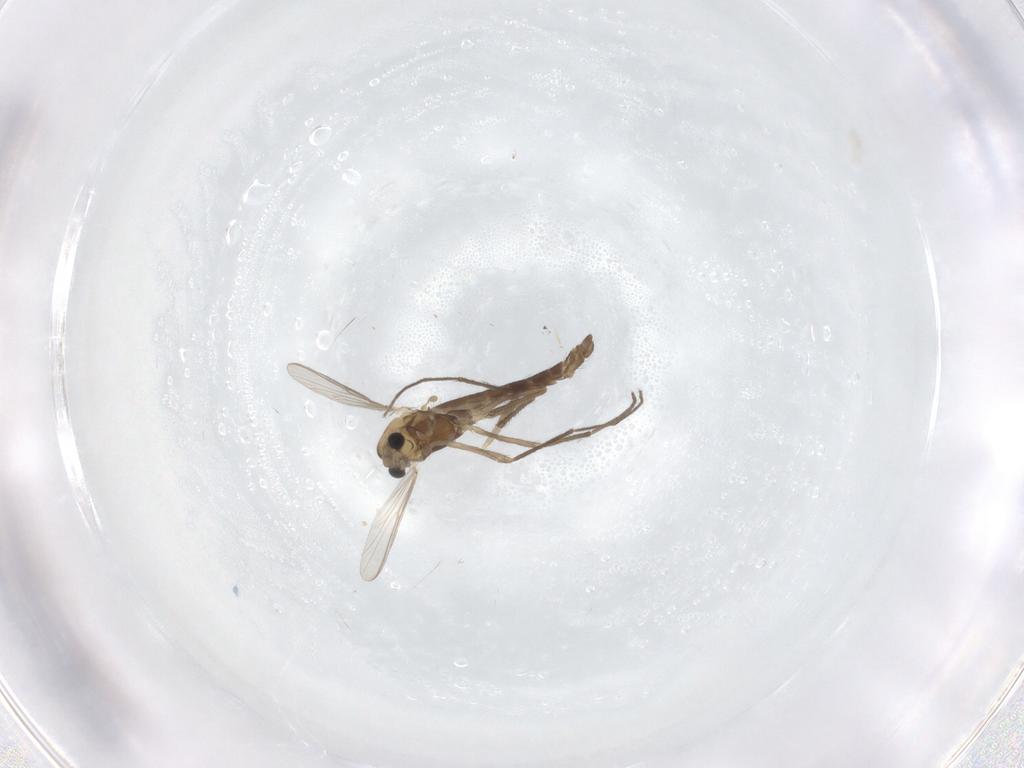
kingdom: Animalia
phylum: Arthropoda
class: Insecta
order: Diptera
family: Chironomidae
